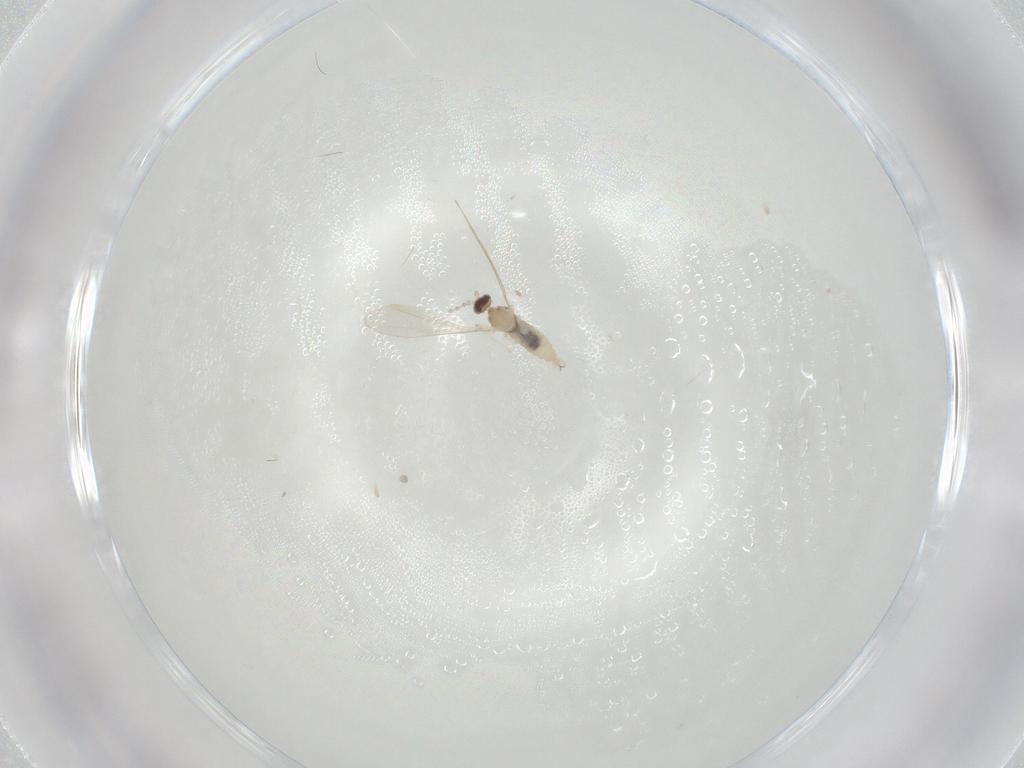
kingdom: Animalia
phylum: Arthropoda
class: Insecta
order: Diptera
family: Cecidomyiidae
